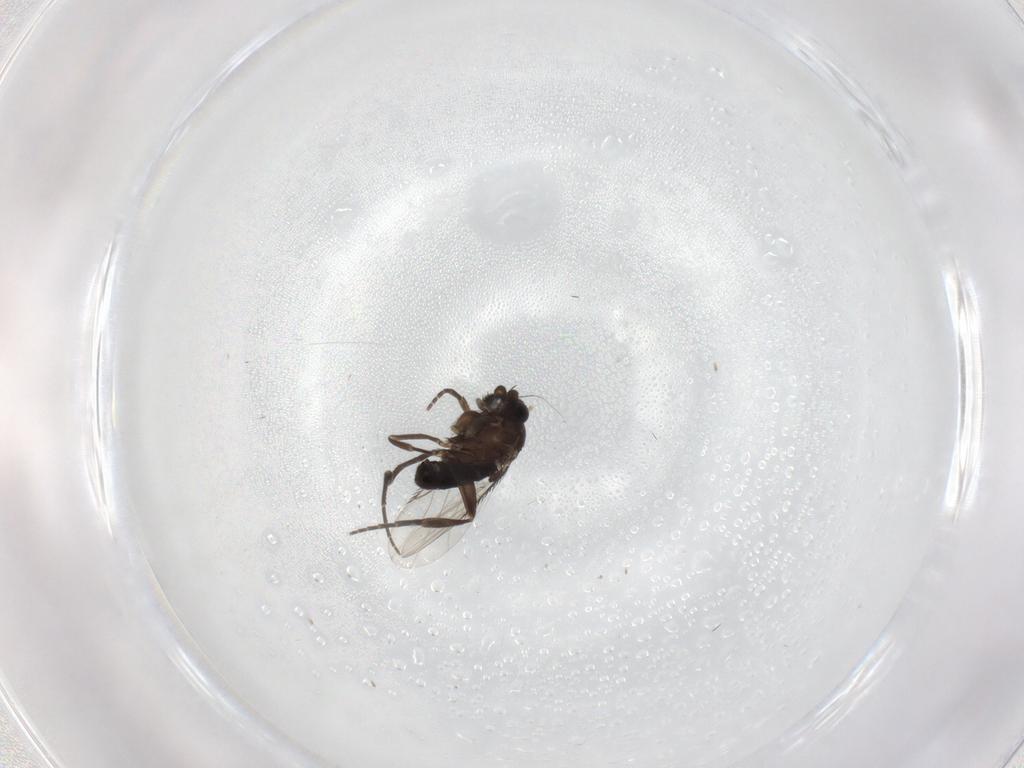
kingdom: Animalia
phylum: Arthropoda
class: Insecta
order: Diptera
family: Phoridae
